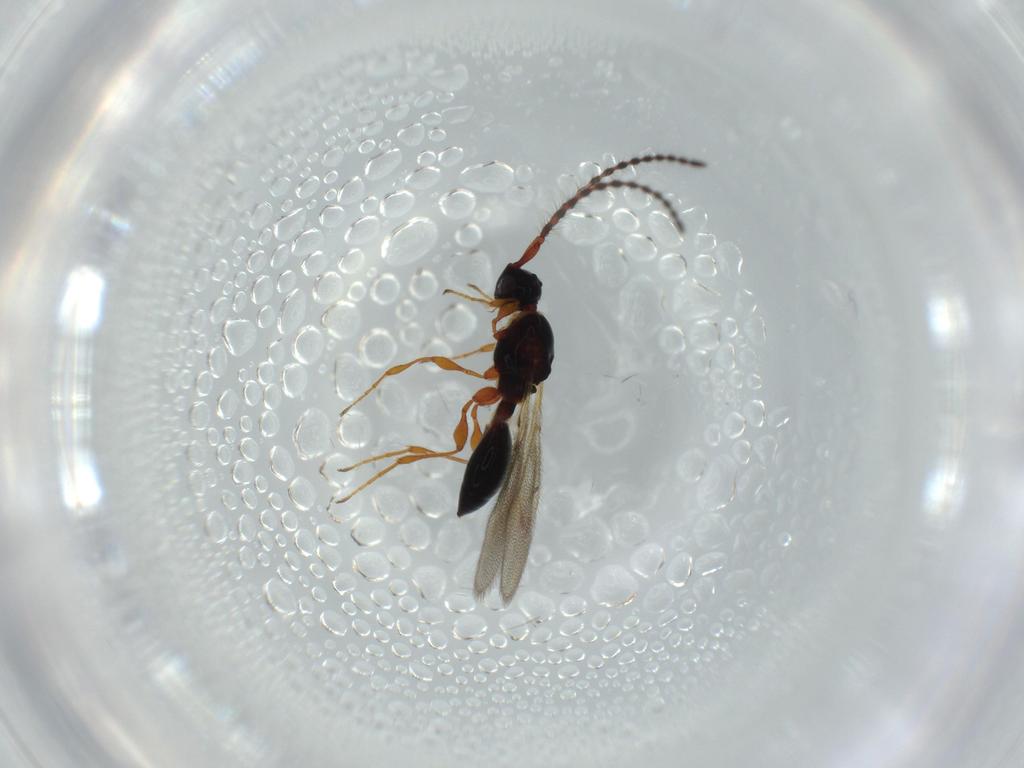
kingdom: Animalia
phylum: Arthropoda
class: Insecta
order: Hymenoptera
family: Diapriidae
